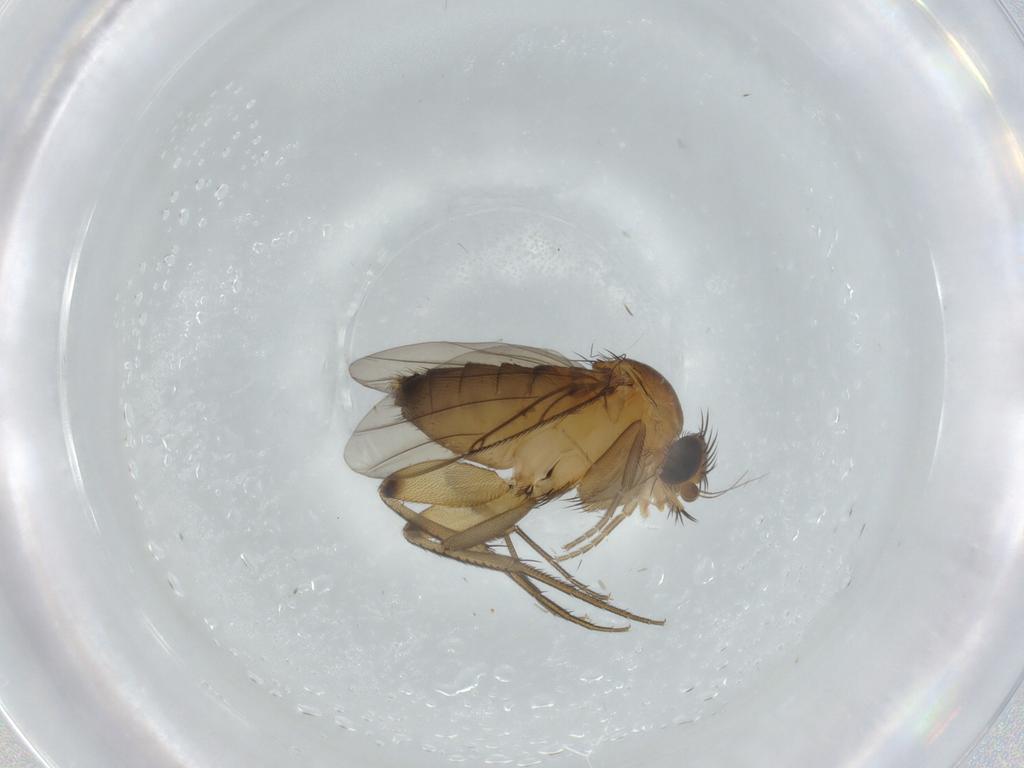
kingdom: Animalia
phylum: Arthropoda
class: Insecta
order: Diptera
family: Phoridae
